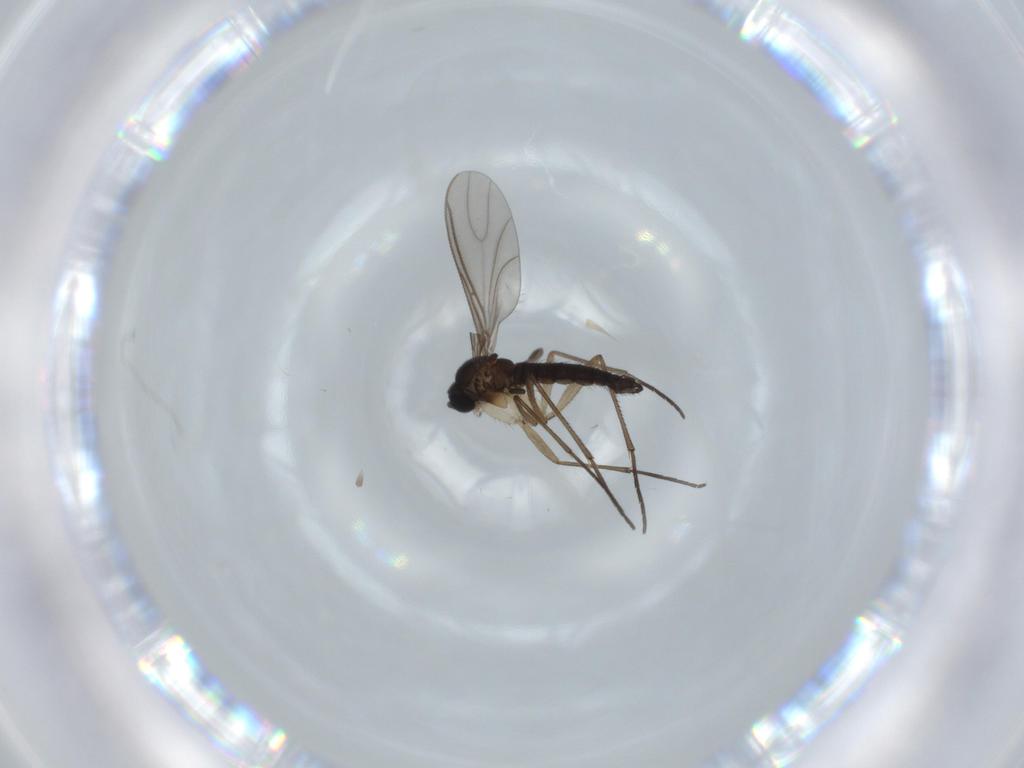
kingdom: Animalia
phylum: Arthropoda
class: Insecta
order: Diptera
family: Sciaridae
